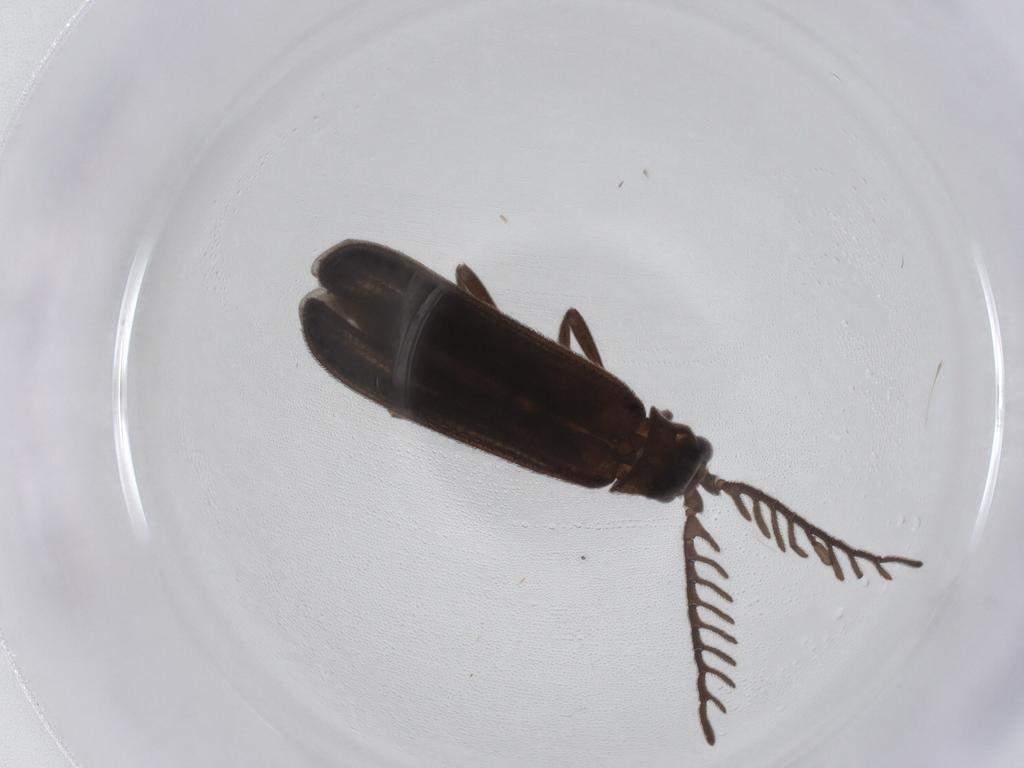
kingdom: Animalia
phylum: Arthropoda
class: Insecta
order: Coleoptera
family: Lycidae
